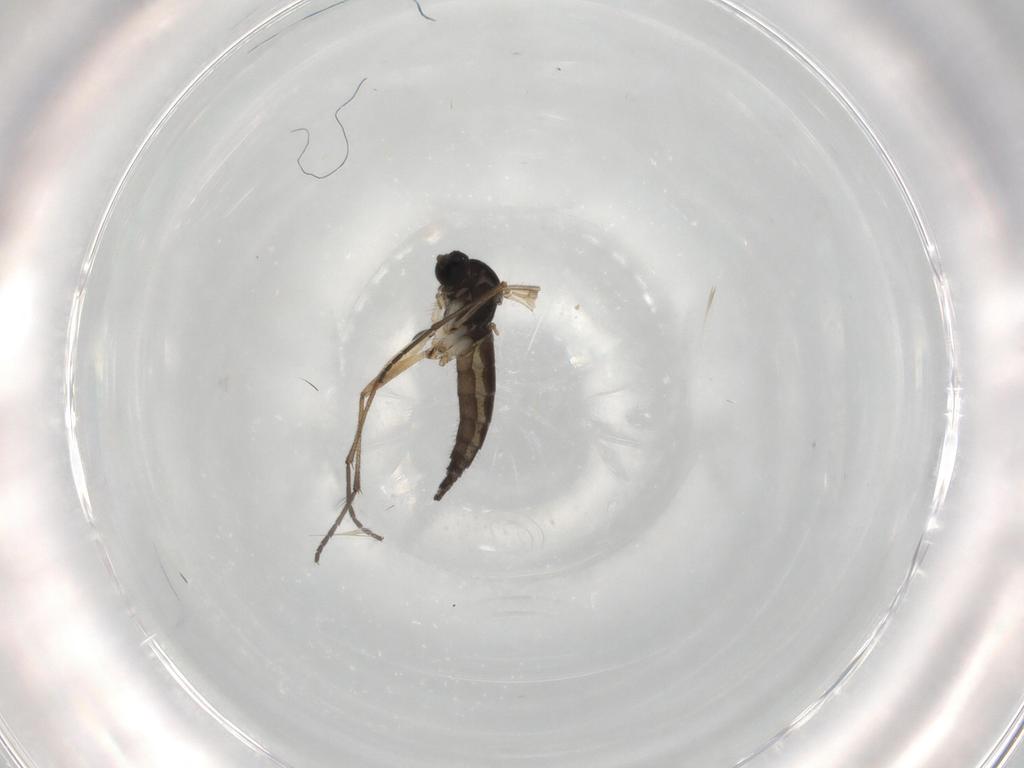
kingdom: Animalia
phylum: Arthropoda
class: Insecta
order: Diptera
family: Sciaridae
